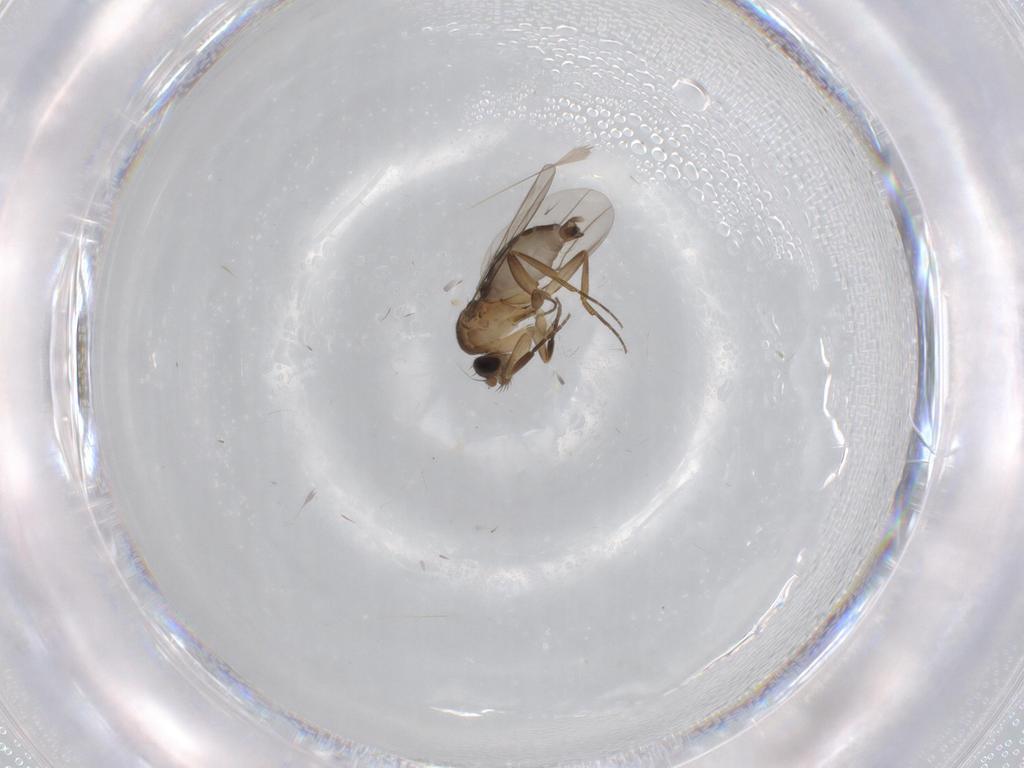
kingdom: Animalia
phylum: Arthropoda
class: Insecta
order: Diptera
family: Phoridae
